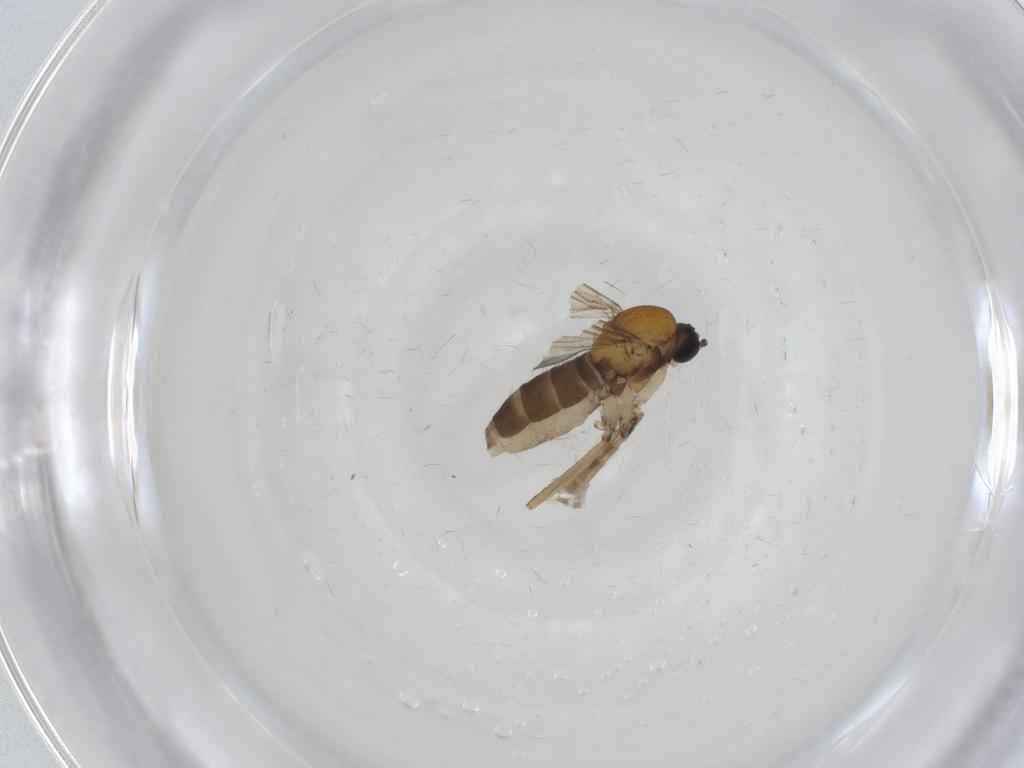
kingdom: Animalia
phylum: Arthropoda
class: Insecta
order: Diptera
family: Sciaridae
